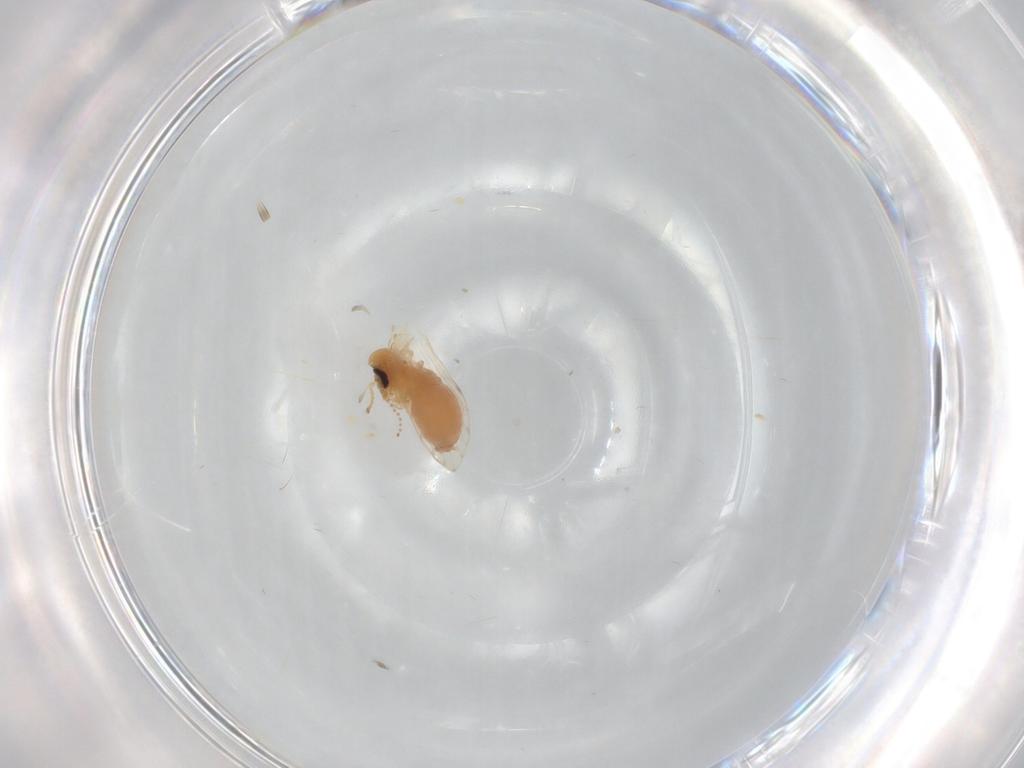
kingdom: Animalia
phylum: Arthropoda
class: Insecta
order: Diptera
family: Psychodidae
